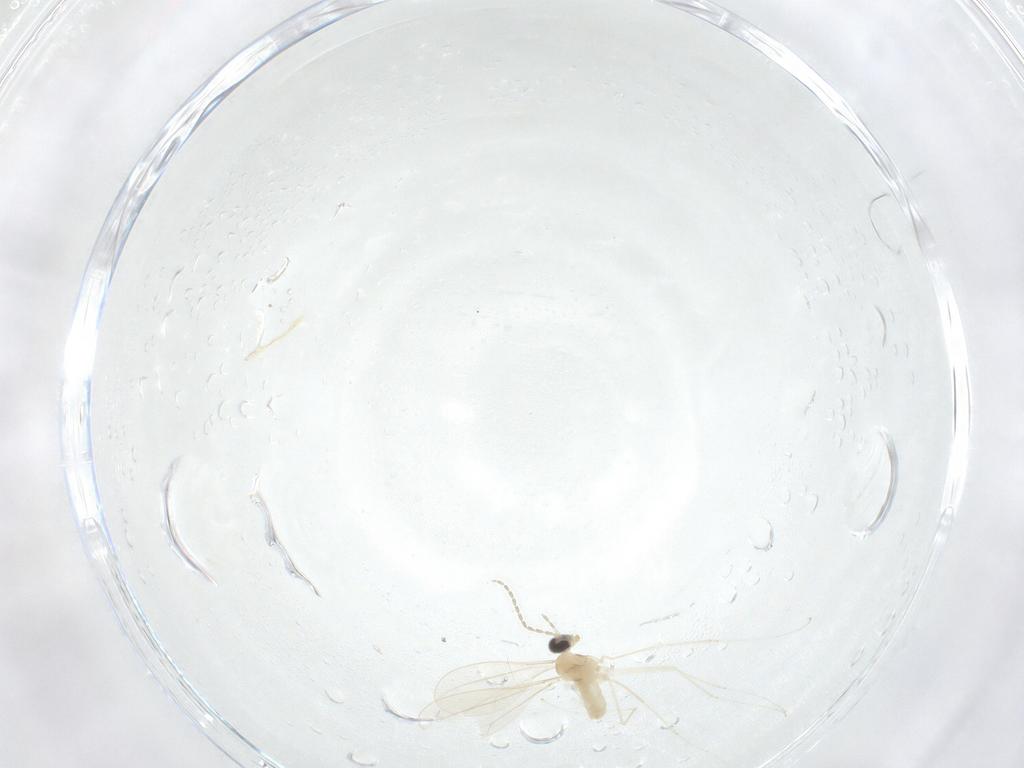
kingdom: Animalia
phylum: Arthropoda
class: Insecta
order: Diptera
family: Cecidomyiidae
